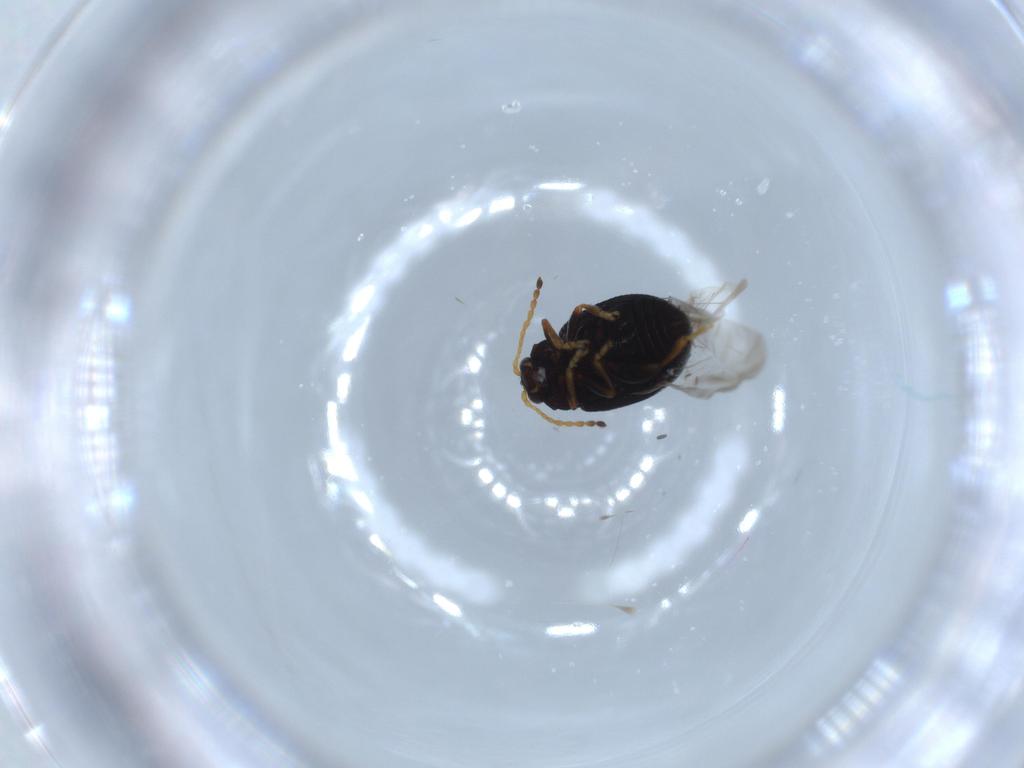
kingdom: Animalia
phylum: Arthropoda
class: Insecta
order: Coleoptera
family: Chrysomelidae
